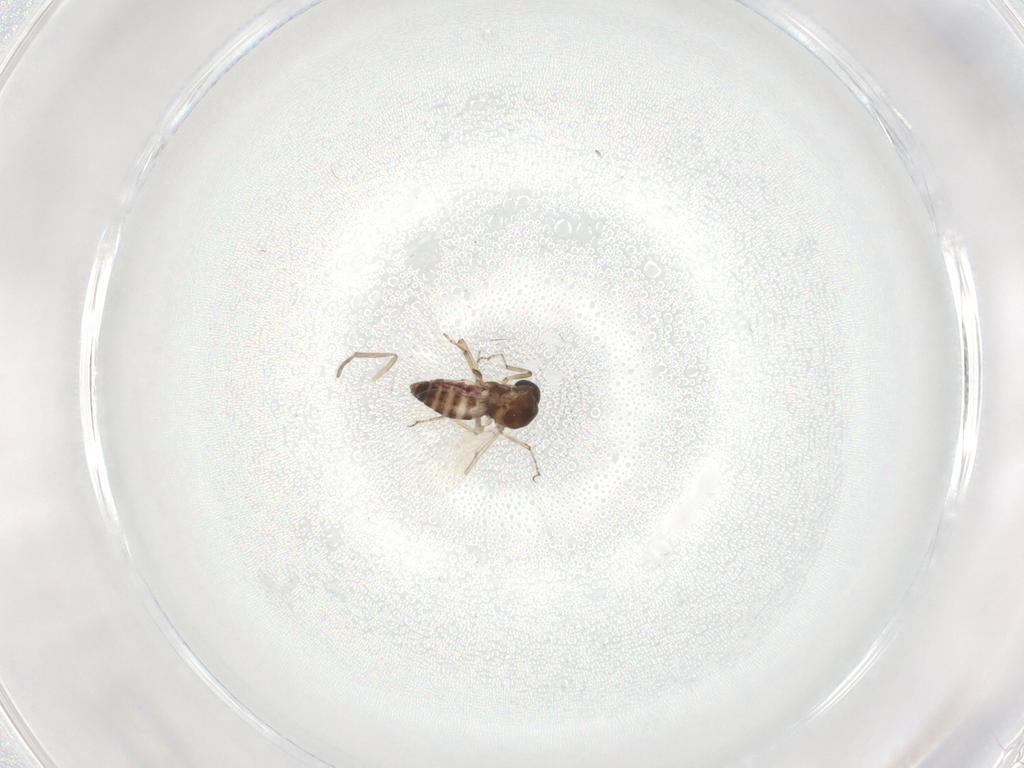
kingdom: Animalia
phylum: Arthropoda
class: Insecta
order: Diptera
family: Ceratopogonidae
